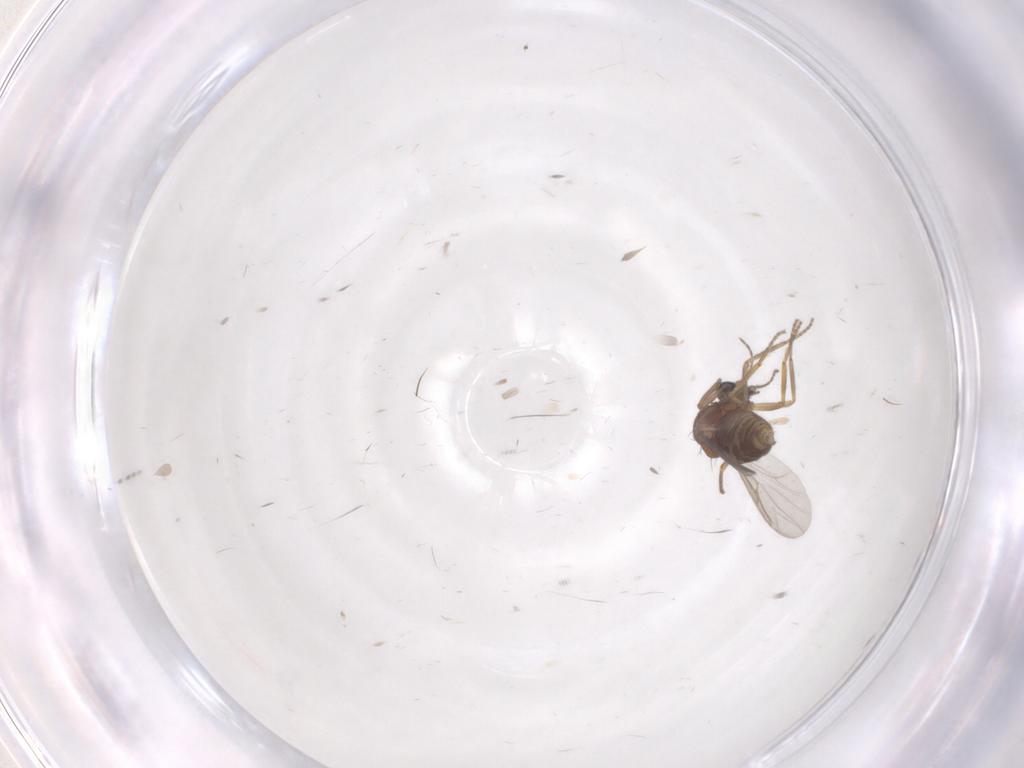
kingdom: Animalia
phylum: Arthropoda
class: Insecta
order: Diptera
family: Ceratopogonidae
